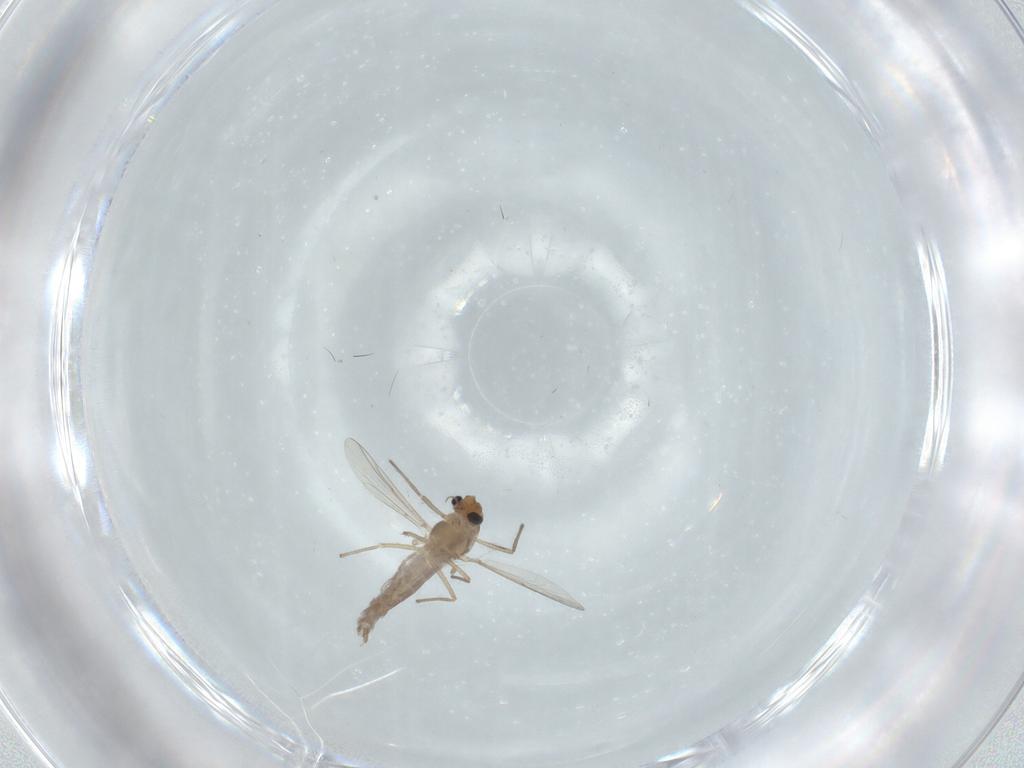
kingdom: Animalia
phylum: Arthropoda
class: Insecta
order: Diptera
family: Chironomidae
